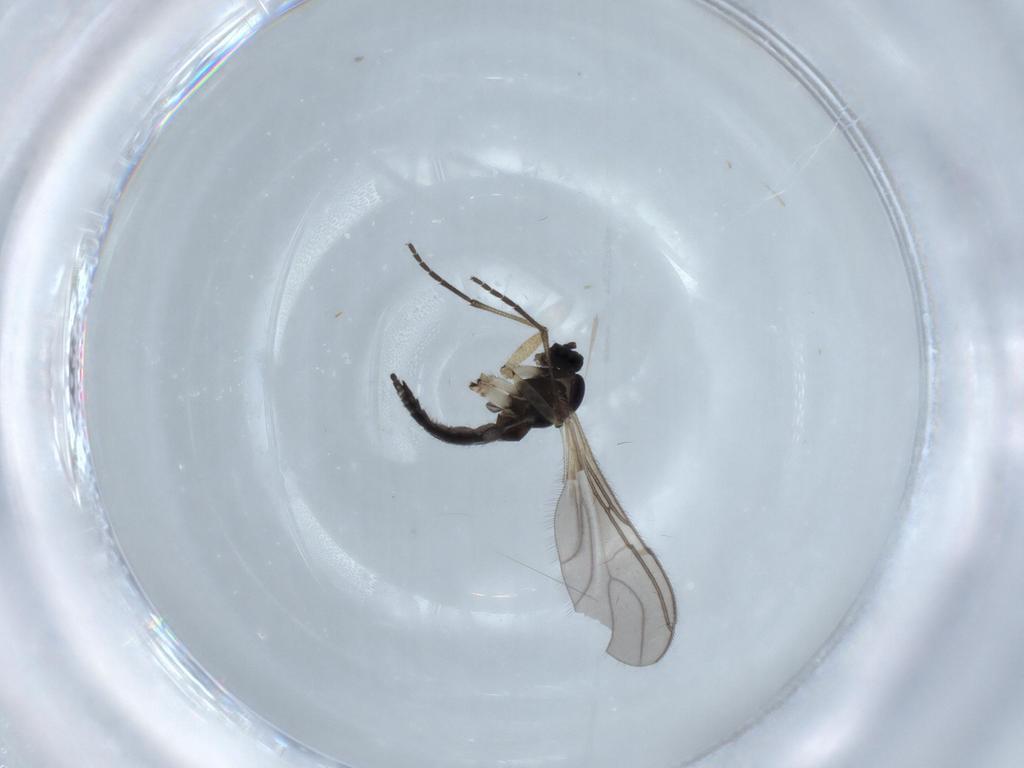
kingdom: Animalia
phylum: Arthropoda
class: Insecta
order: Diptera
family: Sciaridae
